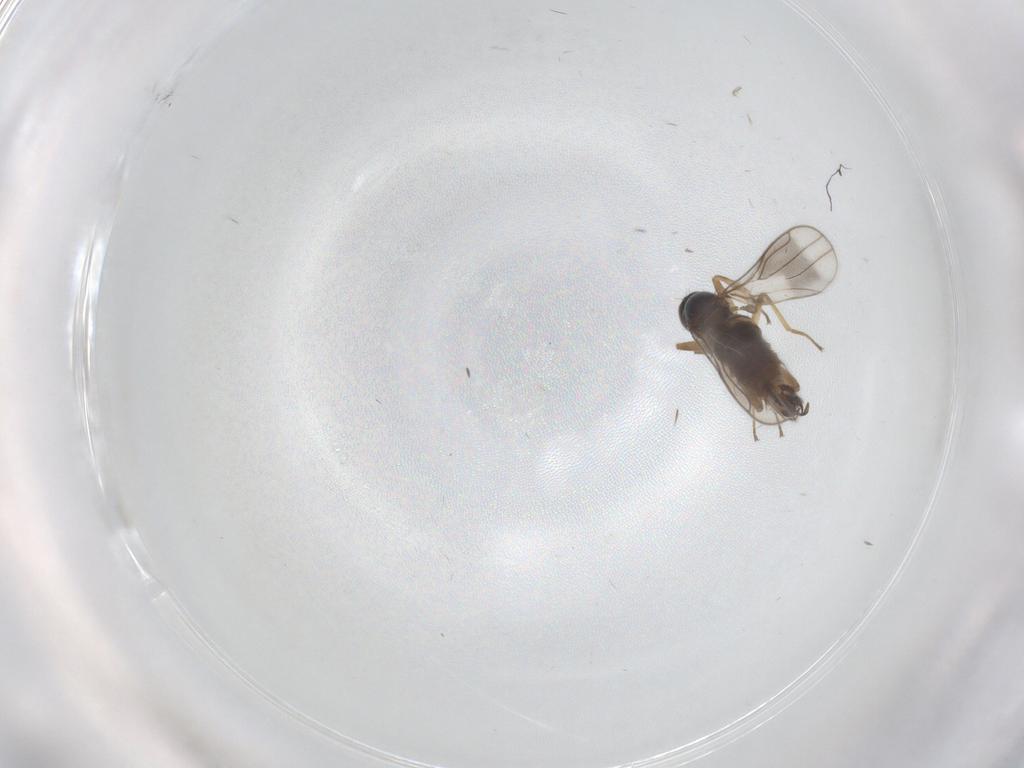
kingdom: Animalia
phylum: Arthropoda
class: Insecta
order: Diptera
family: Hybotidae
